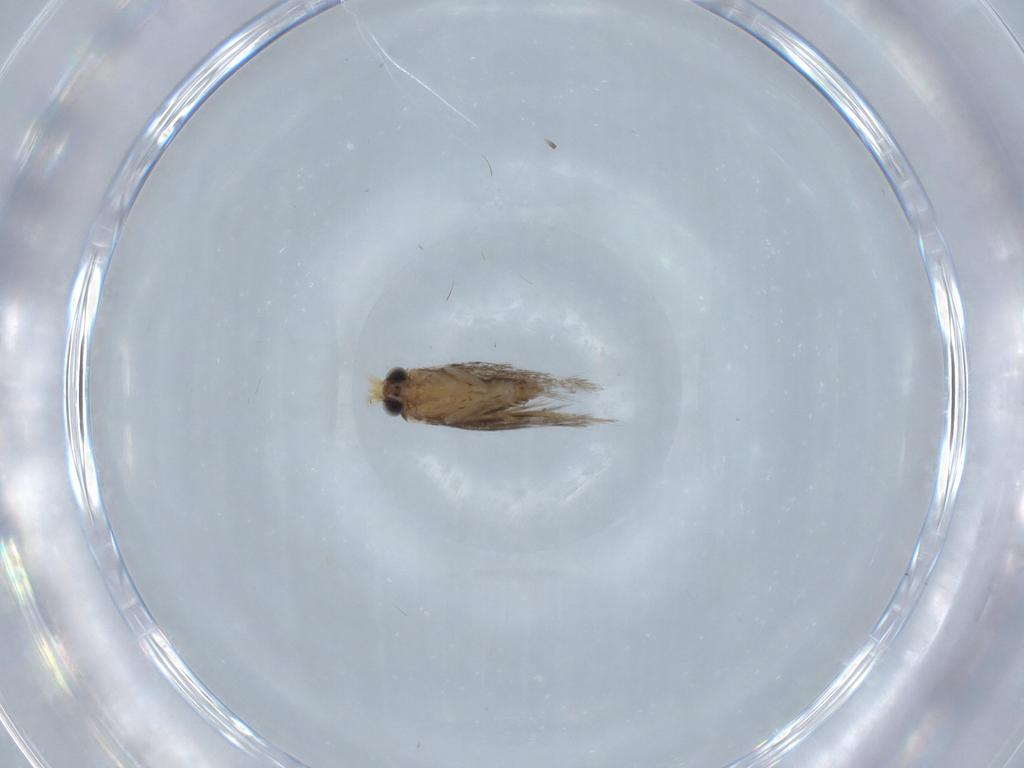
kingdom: Animalia
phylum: Arthropoda
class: Insecta
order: Lepidoptera
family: Nepticulidae
